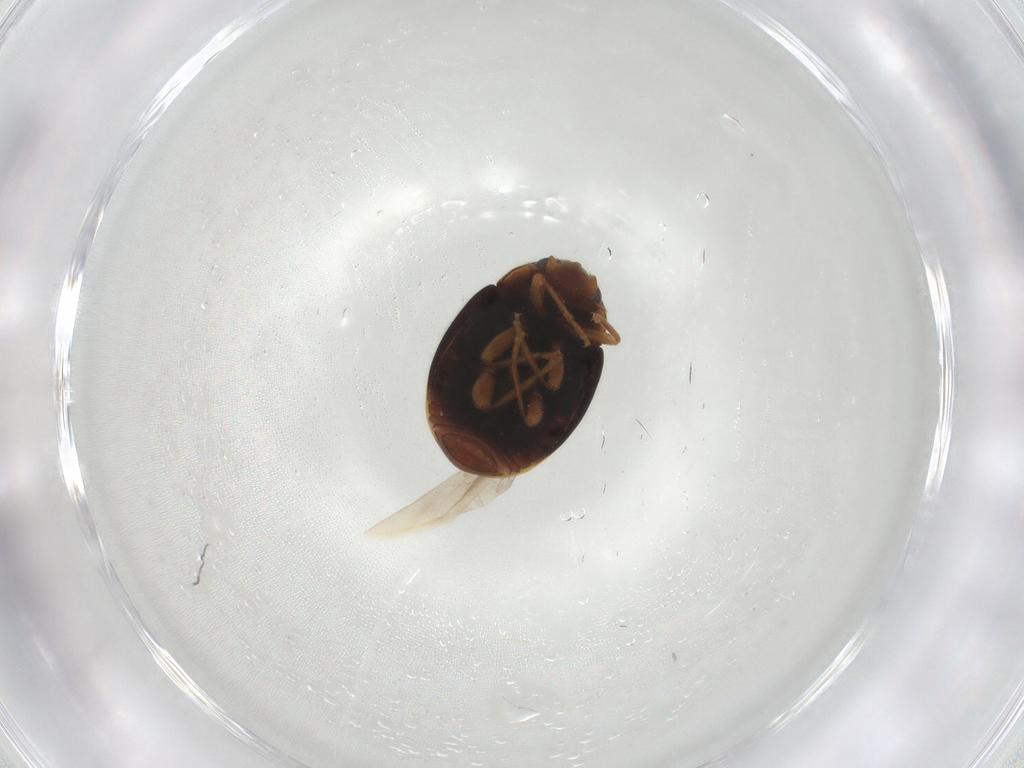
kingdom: Animalia
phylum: Arthropoda
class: Insecta
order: Coleoptera
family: Coccinellidae
